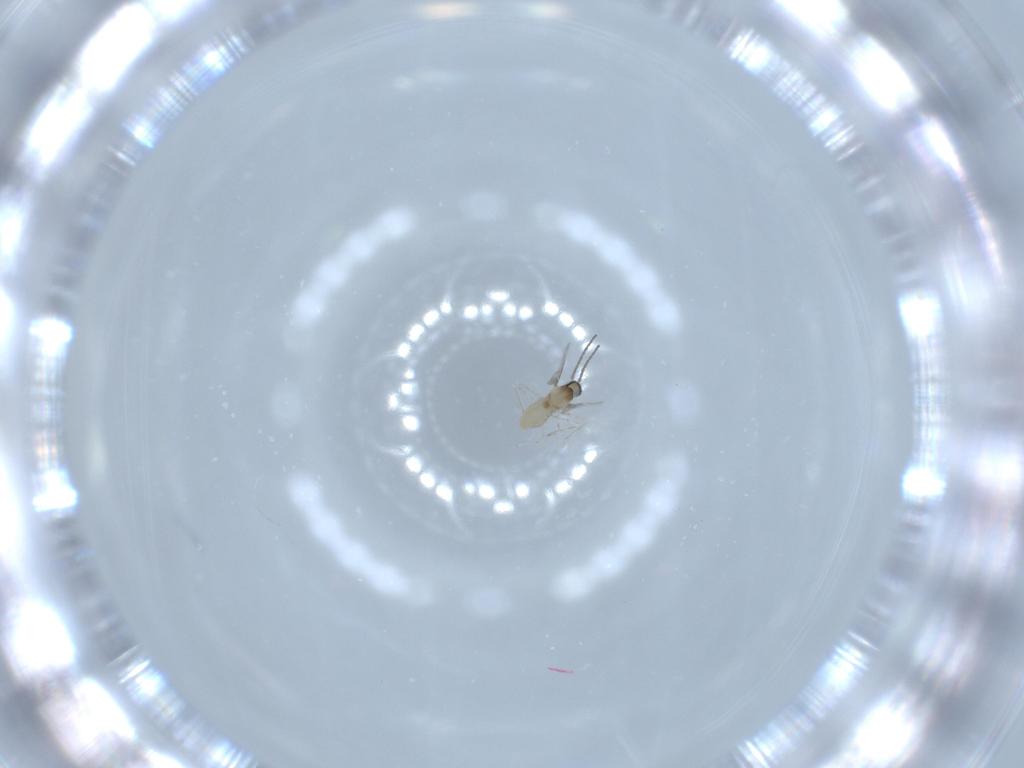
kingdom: Animalia
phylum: Arthropoda
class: Insecta
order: Diptera
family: Cecidomyiidae
